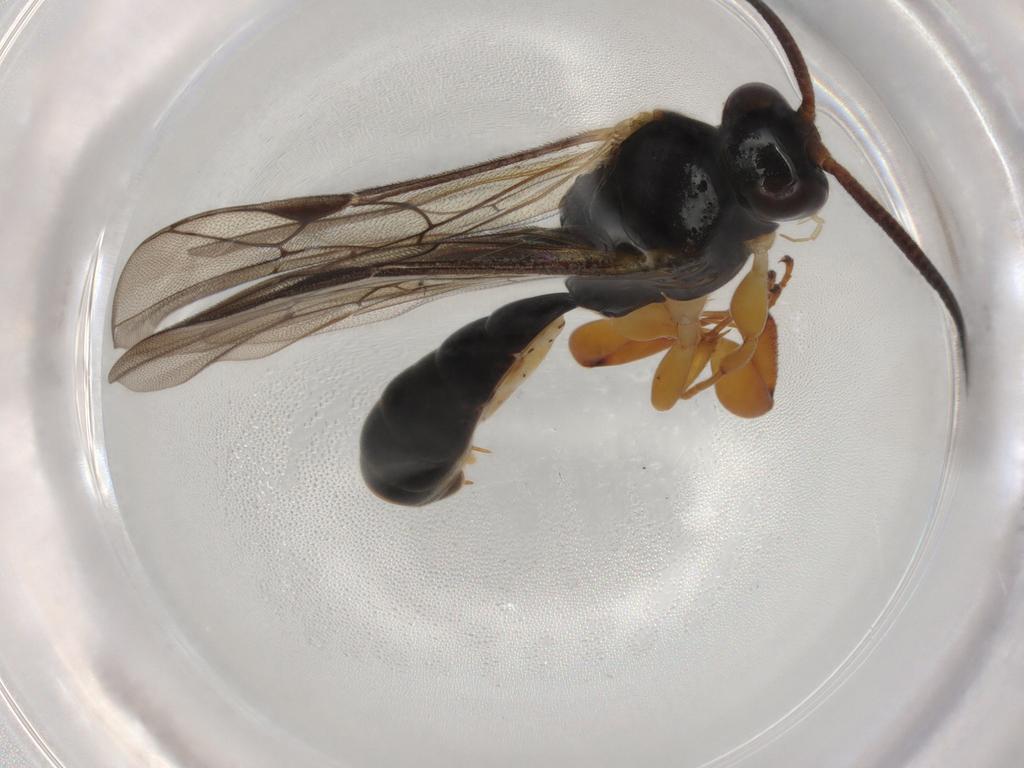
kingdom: Animalia
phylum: Arthropoda
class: Insecta
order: Hymenoptera
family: Ichneumonidae
